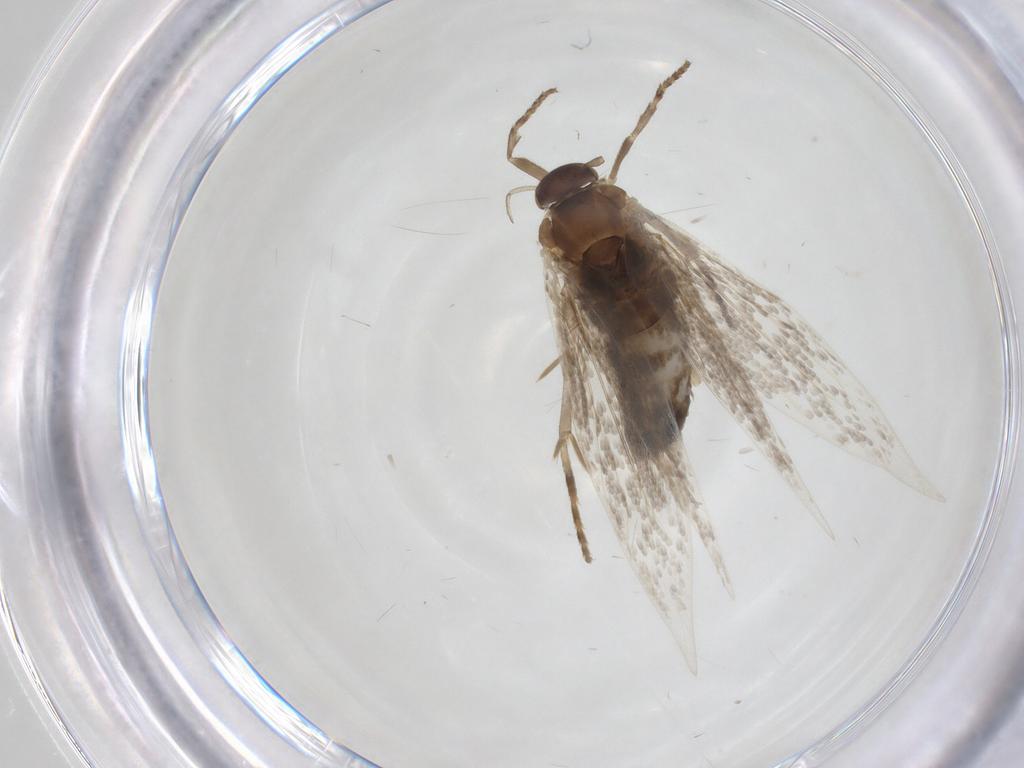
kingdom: Animalia
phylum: Arthropoda
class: Insecta
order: Lepidoptera
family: Elachistidae
